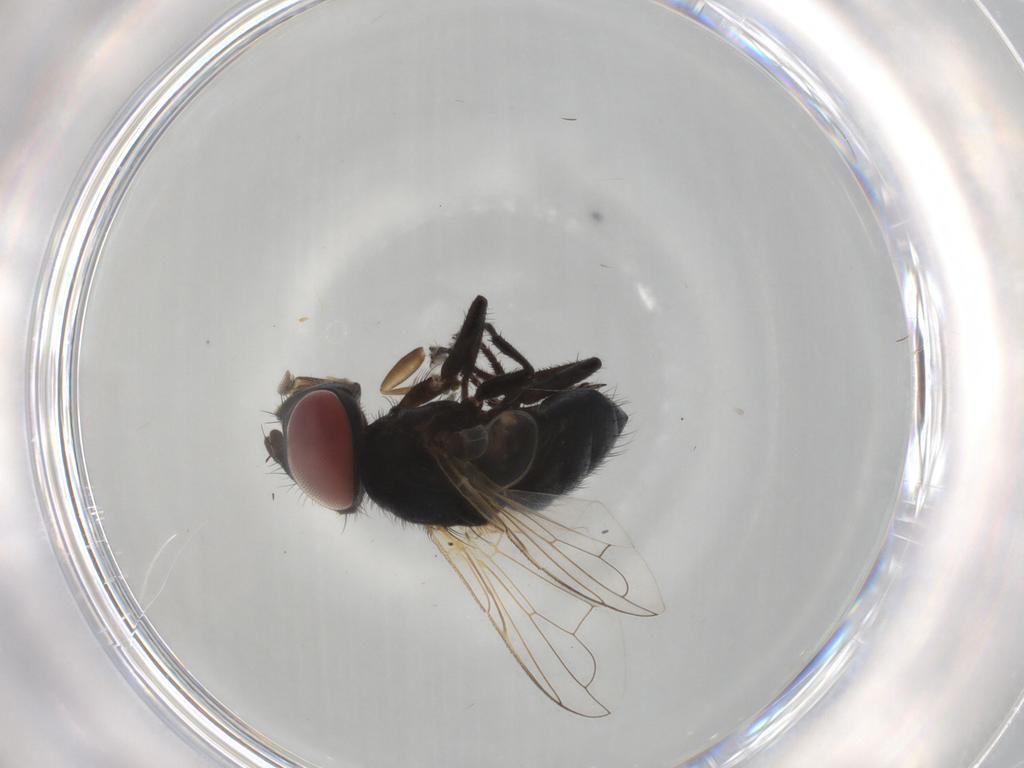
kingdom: Animalia
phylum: Arthropoda
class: Insecta
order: Diptera
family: Tachinidae
